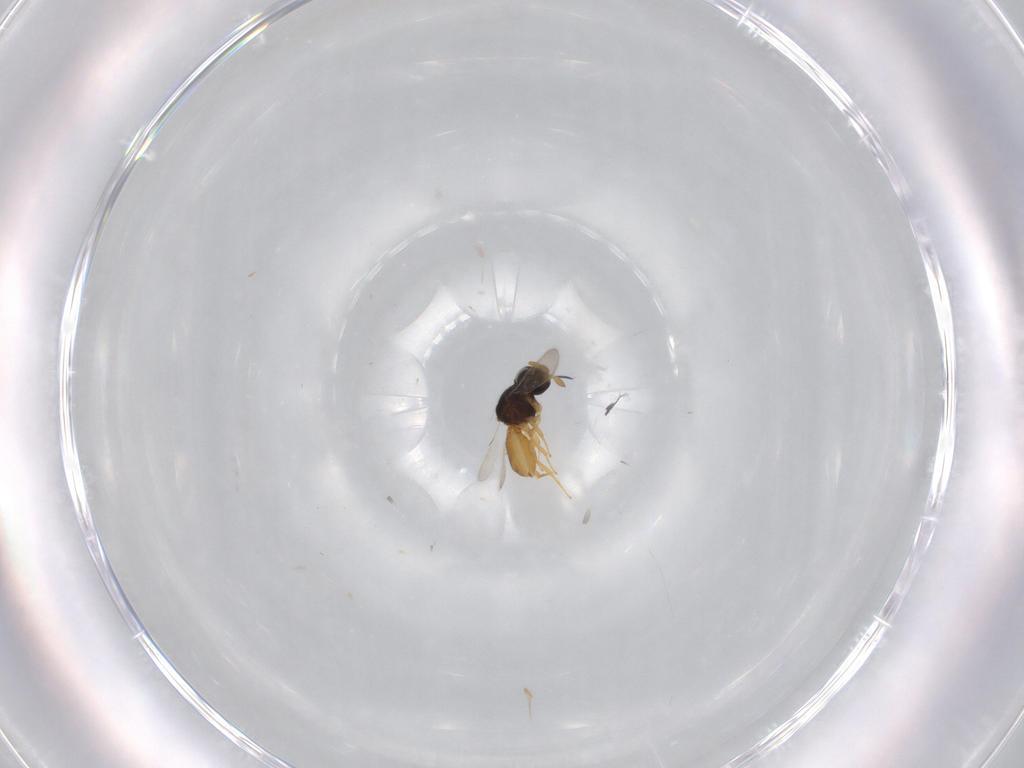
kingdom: Animalia
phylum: Arthropoda
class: Insecta
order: Hymenoptera
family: Scelionidae
